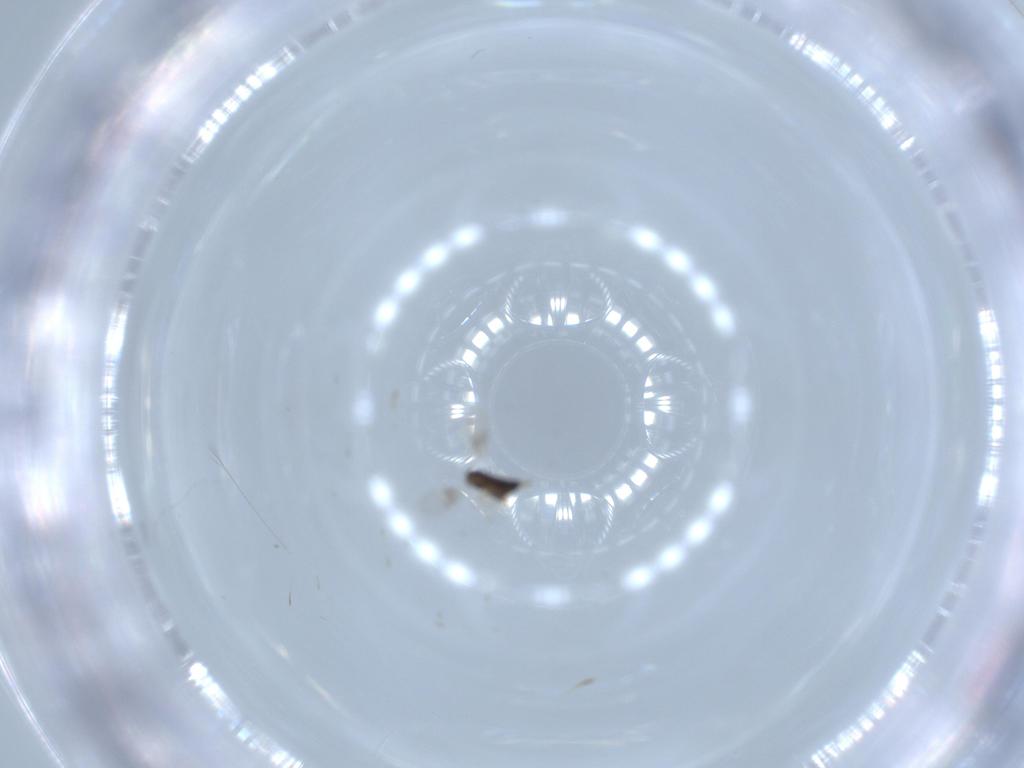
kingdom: Animalia
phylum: Arthropoda
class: Insecta
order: Hymenoptera
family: Azotidae
